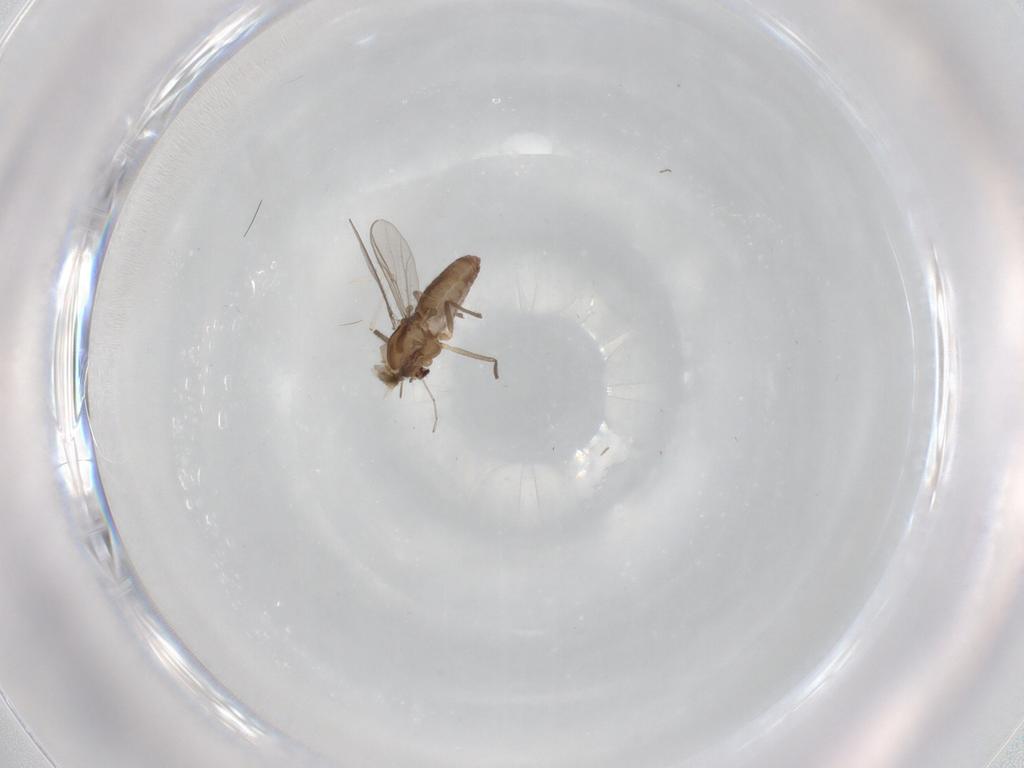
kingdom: Animalia
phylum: Arthropoda
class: Insecta
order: Diptera
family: Chironomidae
